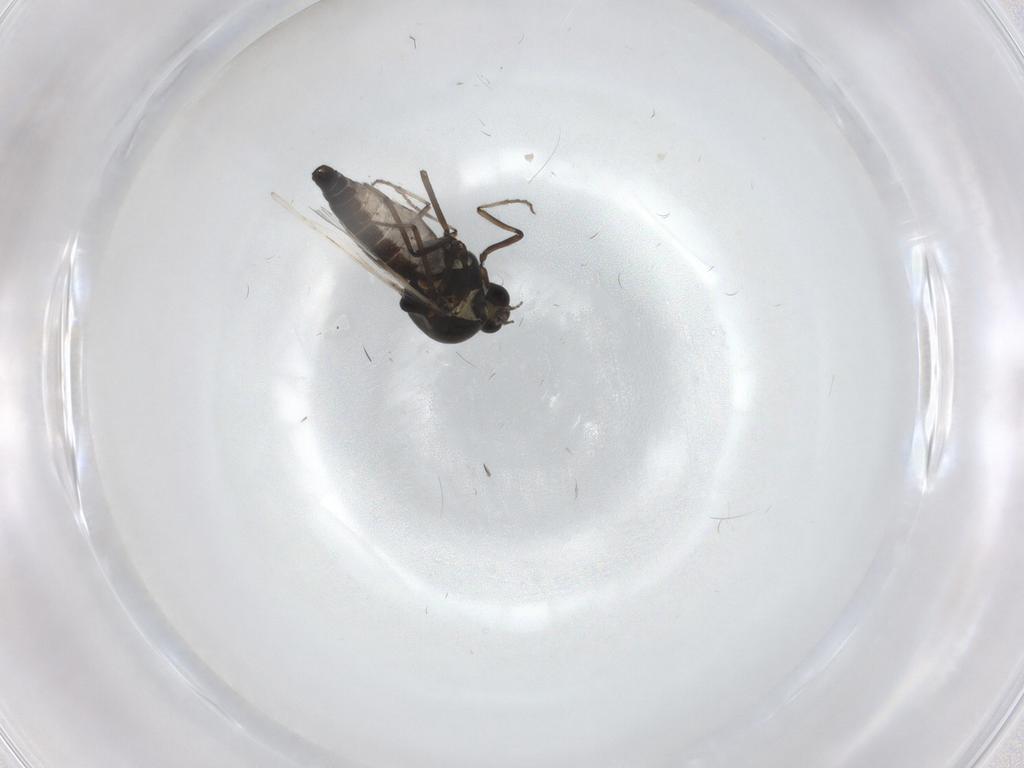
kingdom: Animalia
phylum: Arthropoda
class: Insecta
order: Diptera
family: Ceratopogonidae
